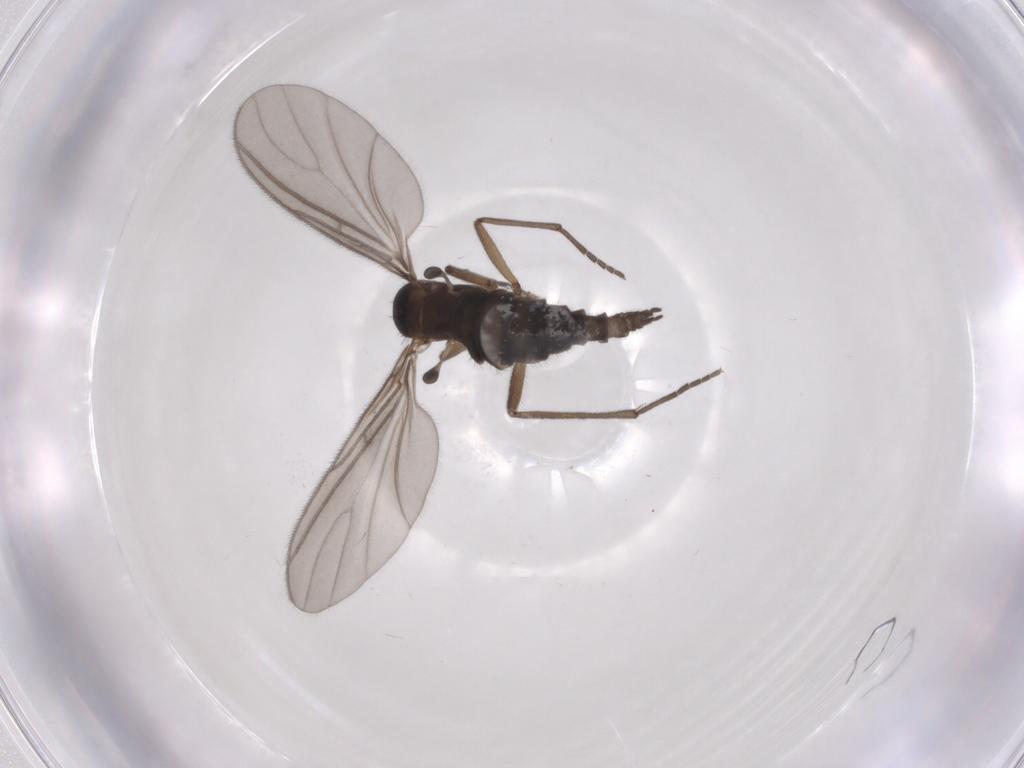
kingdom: Animalia
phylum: Arthropoda
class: Insecta
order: Diptera
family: Sciaridae
